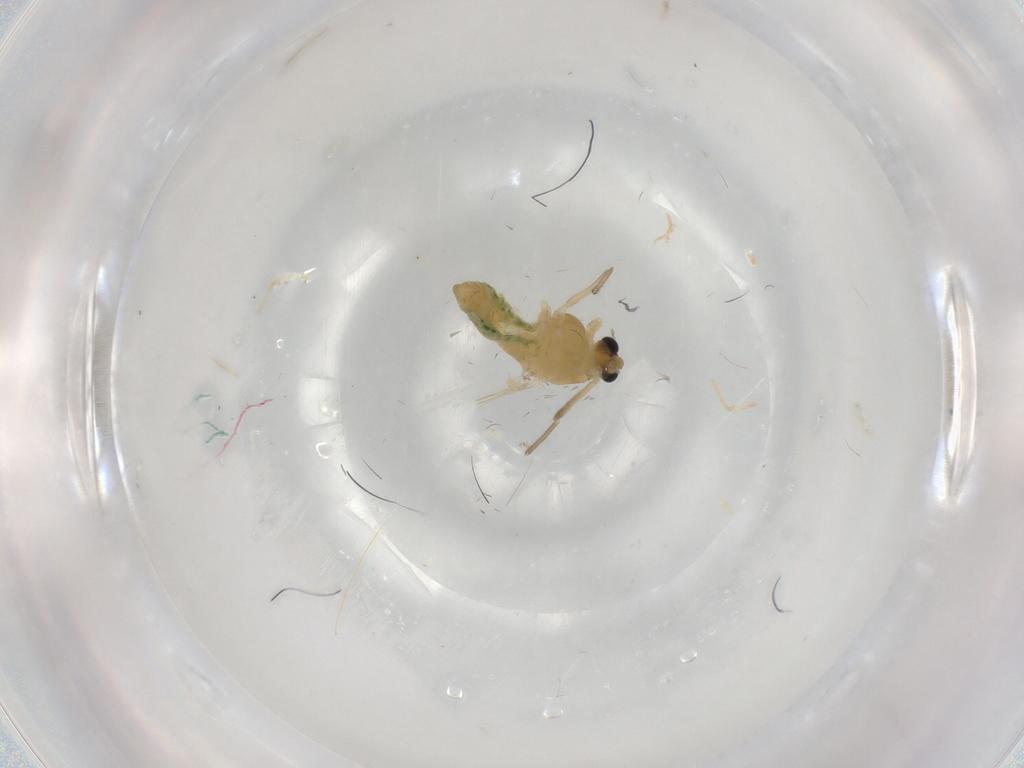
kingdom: Animalia
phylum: Arthropoda
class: Insecta
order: Diptera
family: Chironomidae
